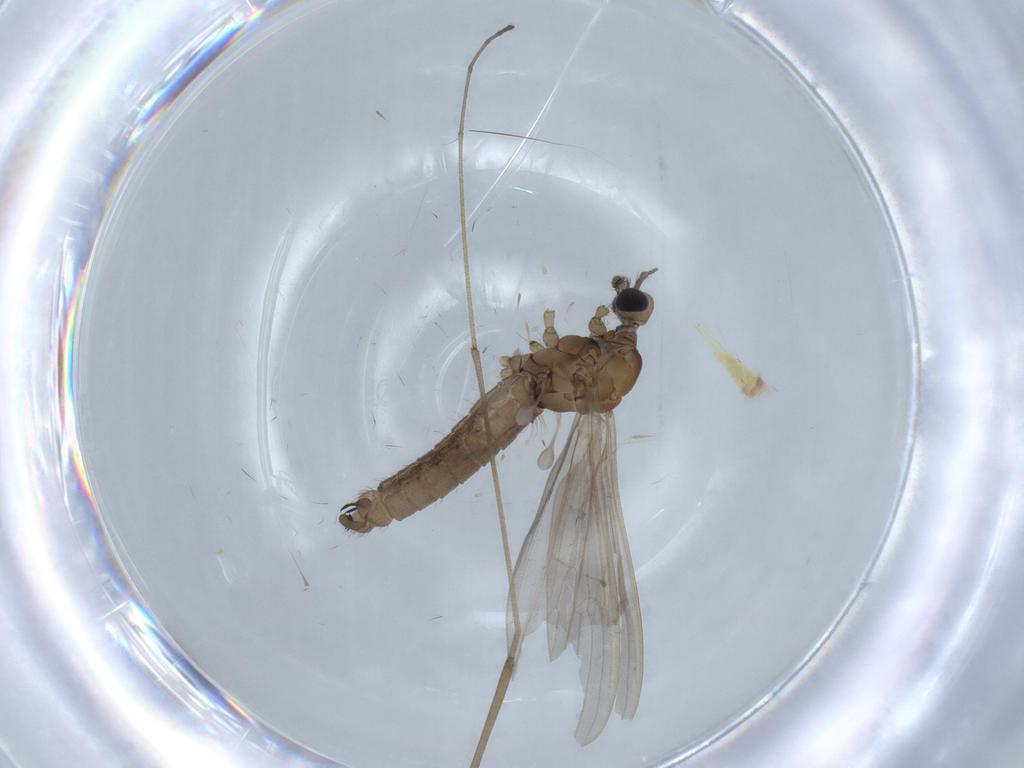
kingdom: Animalia
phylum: Arthropoda
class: Insecta
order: Diptera
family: Limoniidae
